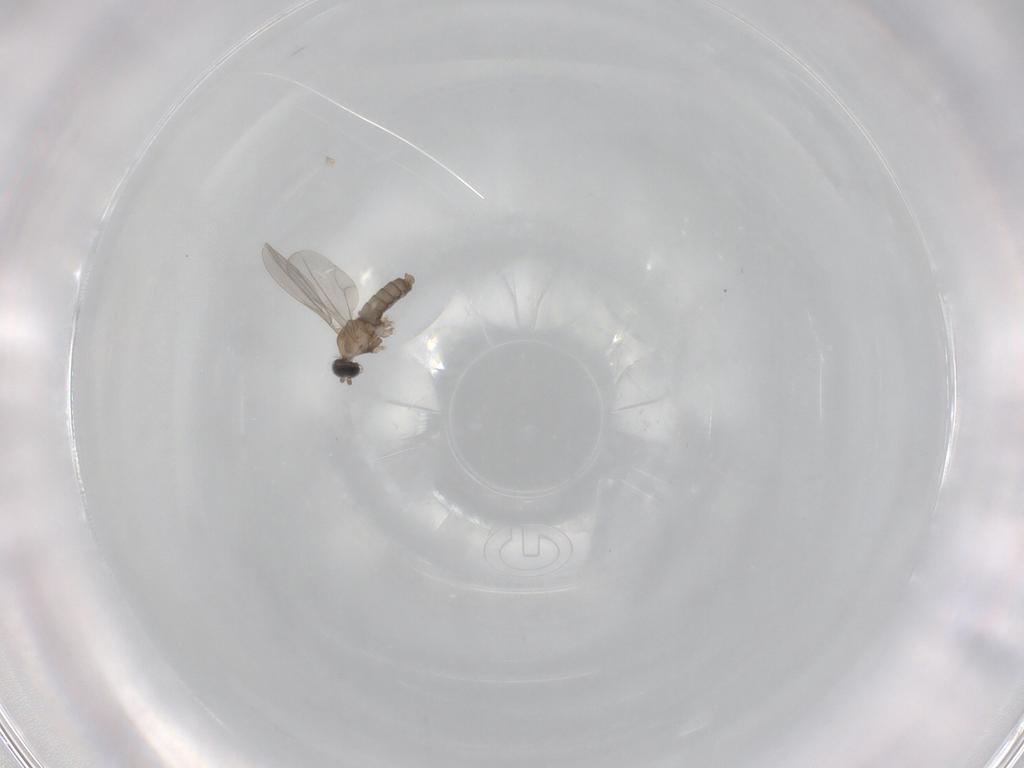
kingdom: Animalia
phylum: Arthropoda
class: Insecta
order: Diptera
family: Cecidomyiidae
